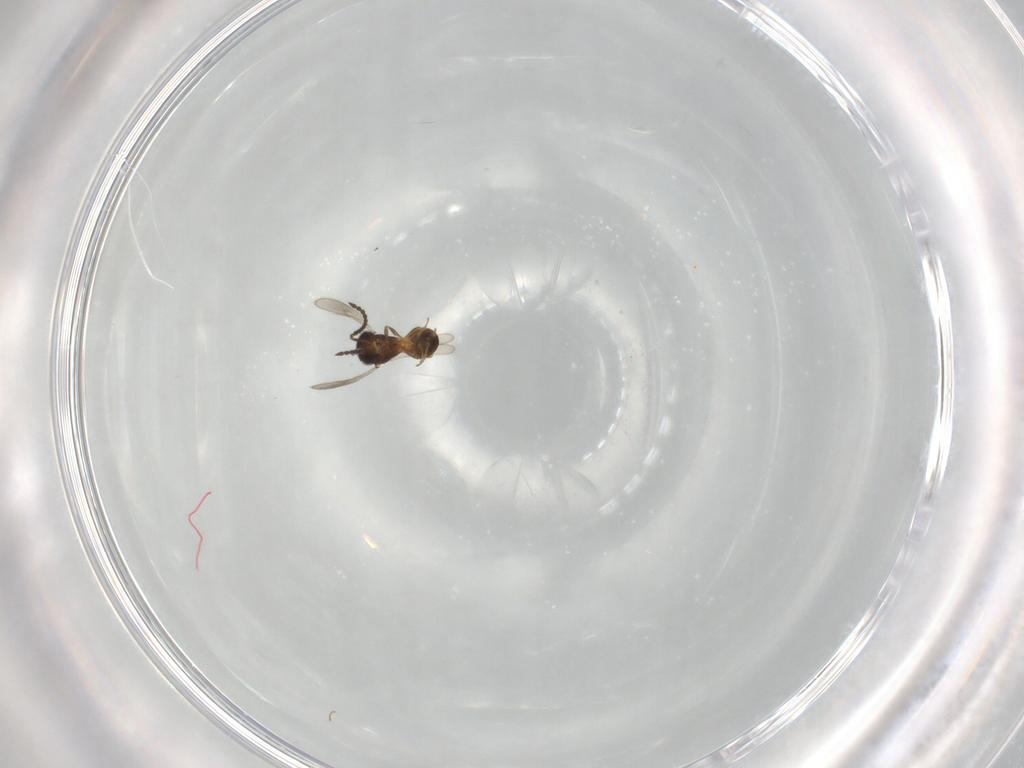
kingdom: Animalia
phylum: Arthropoda
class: Insecta
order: Hymenoptera
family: Scelionidae
